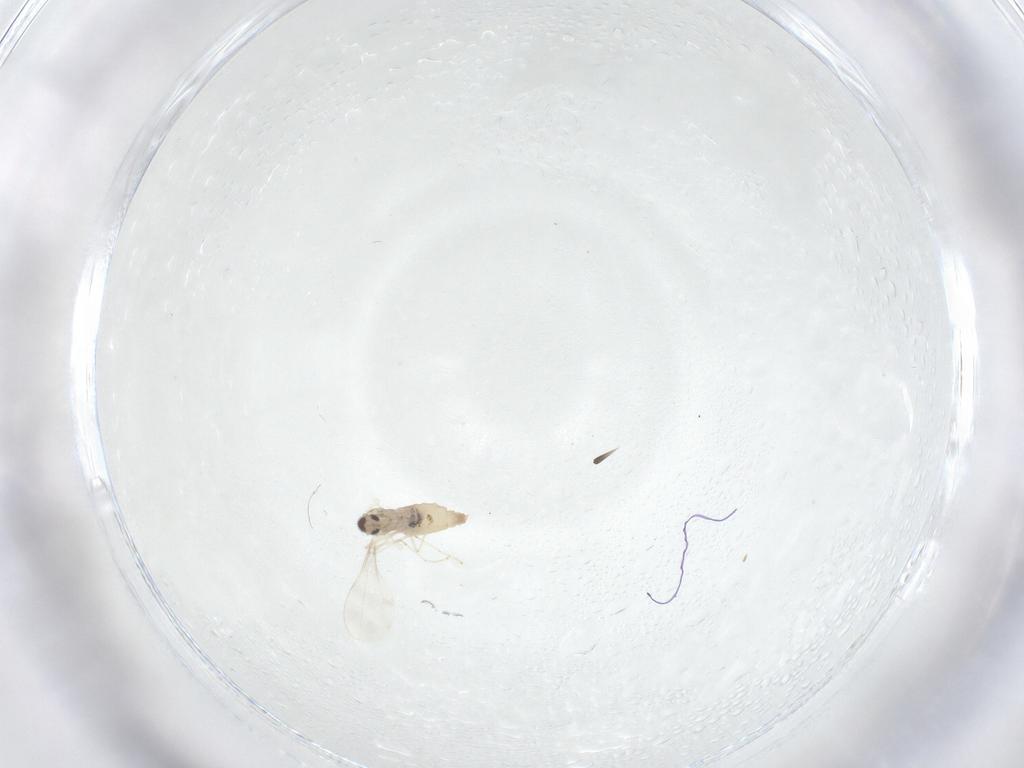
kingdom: Animalia
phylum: Arthropoda
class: Insecta
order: Diptera
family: Cecidomyiidae
